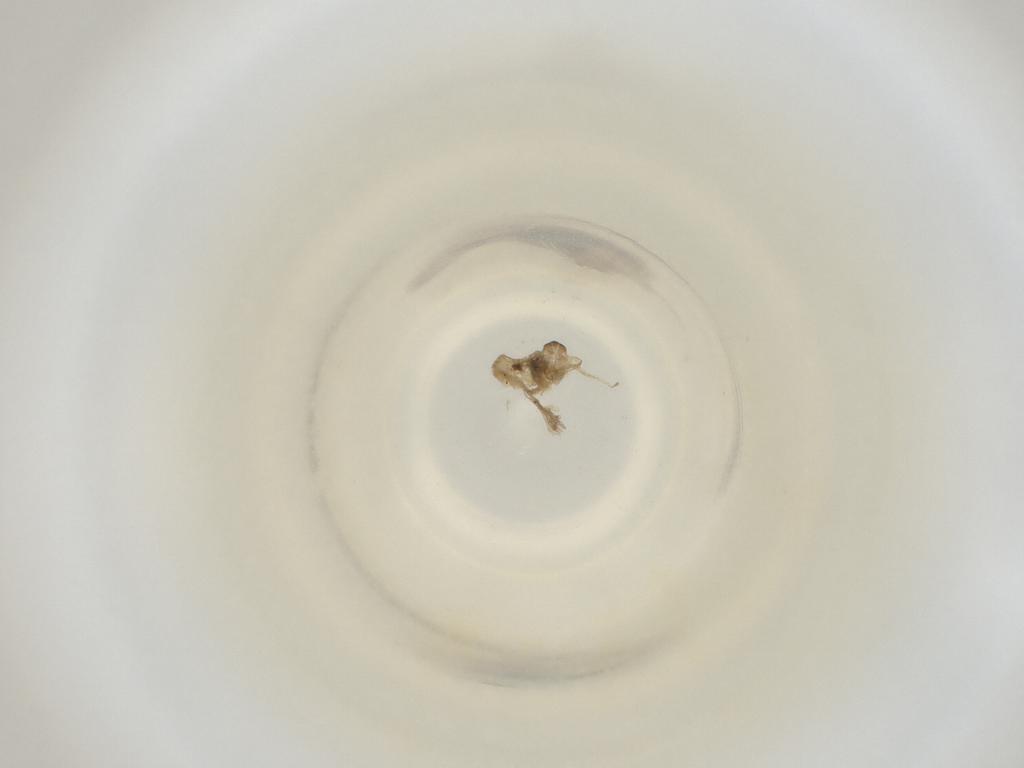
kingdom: Animalia
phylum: Arthropoda
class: Insecta
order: Diptera
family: Cecidomyiidae
